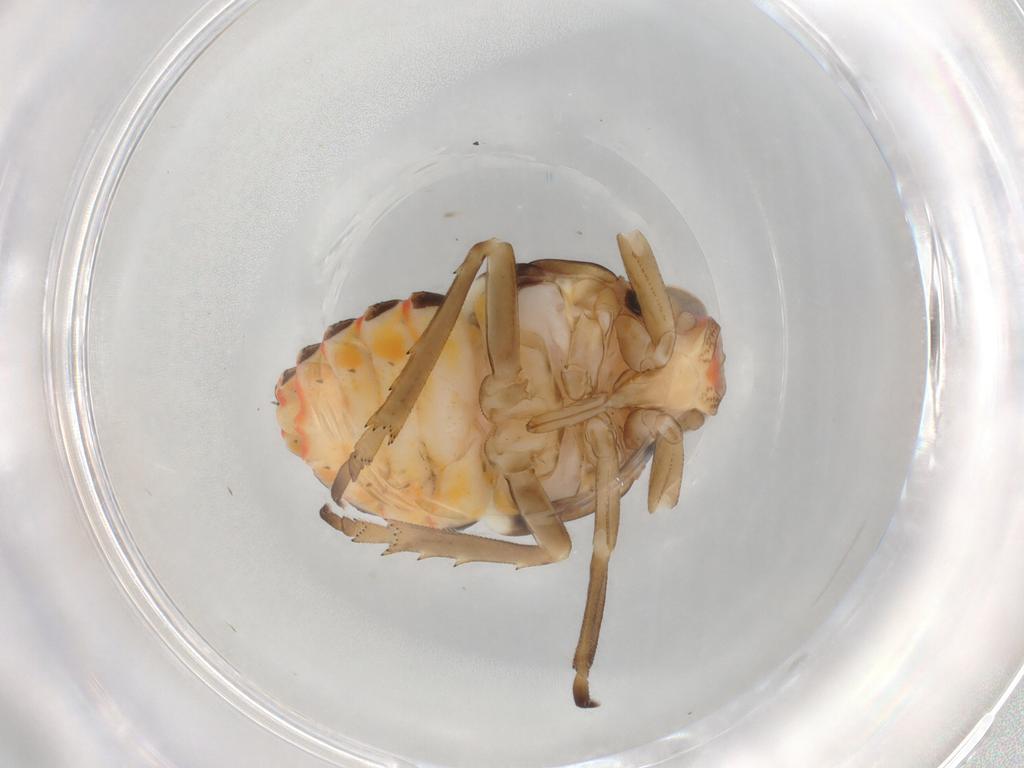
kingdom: Animalia
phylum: Arthropoda
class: Insecta
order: Hemiptera
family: Fulgoroidea_incertae_sedis
